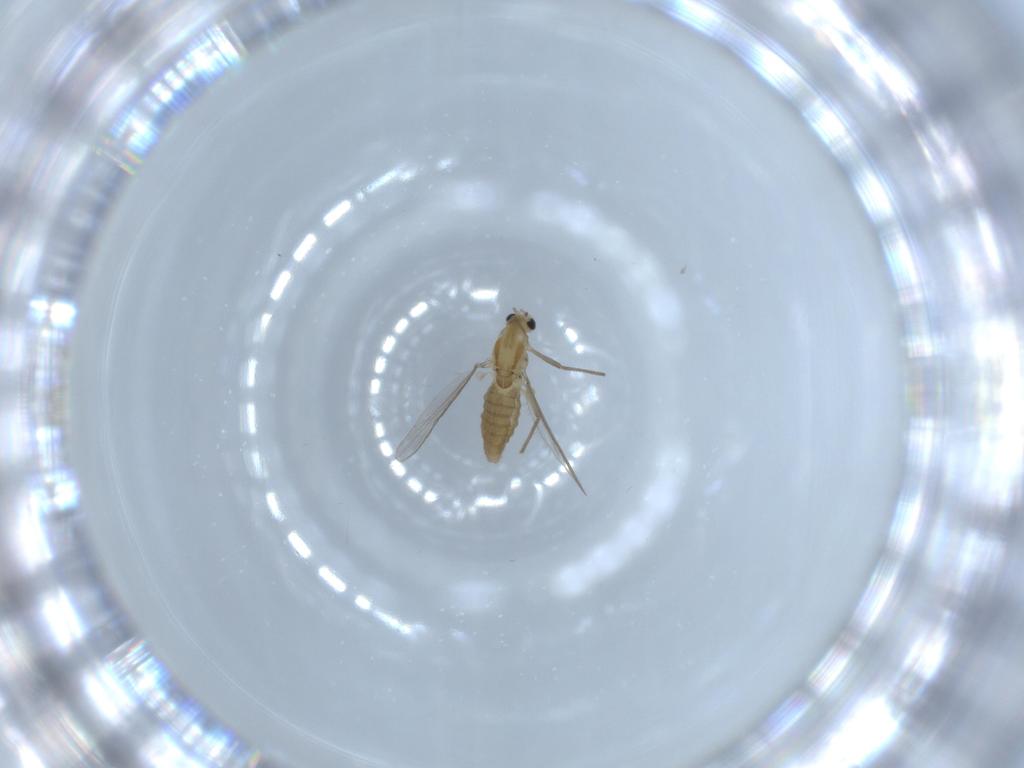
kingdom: Animalia
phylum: Arthropoda
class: Insecta
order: Diptera
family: Chironomidae
